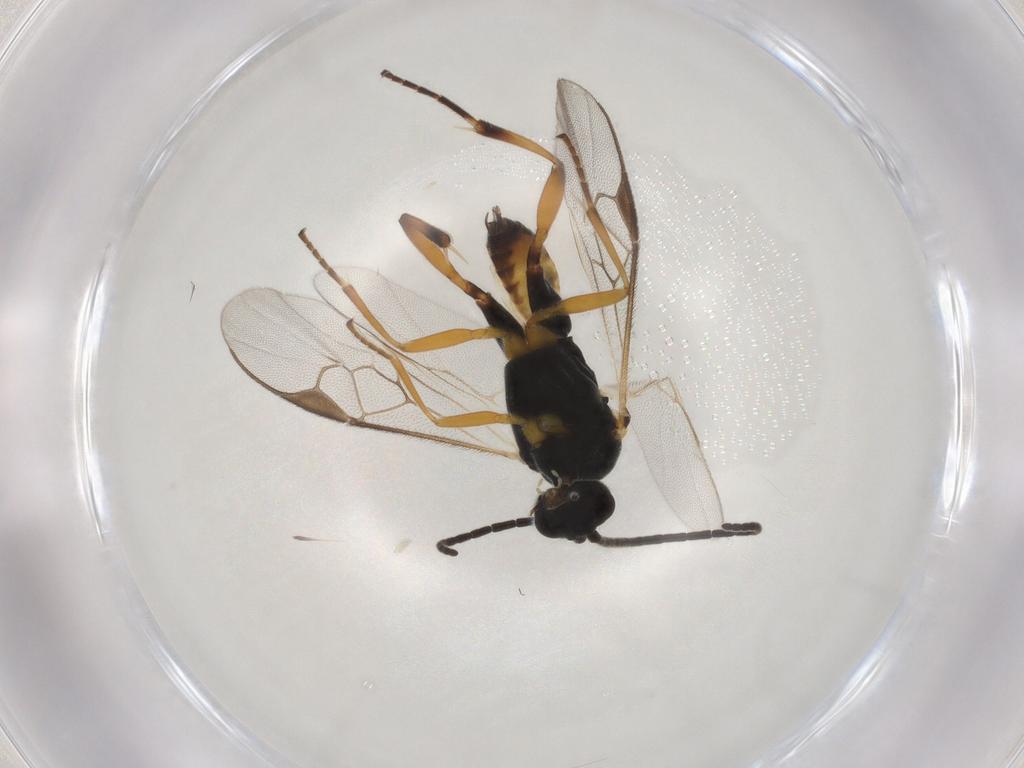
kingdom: Animalia
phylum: Arthropoda
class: Insecta
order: Hymenoptera
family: Braconidae
